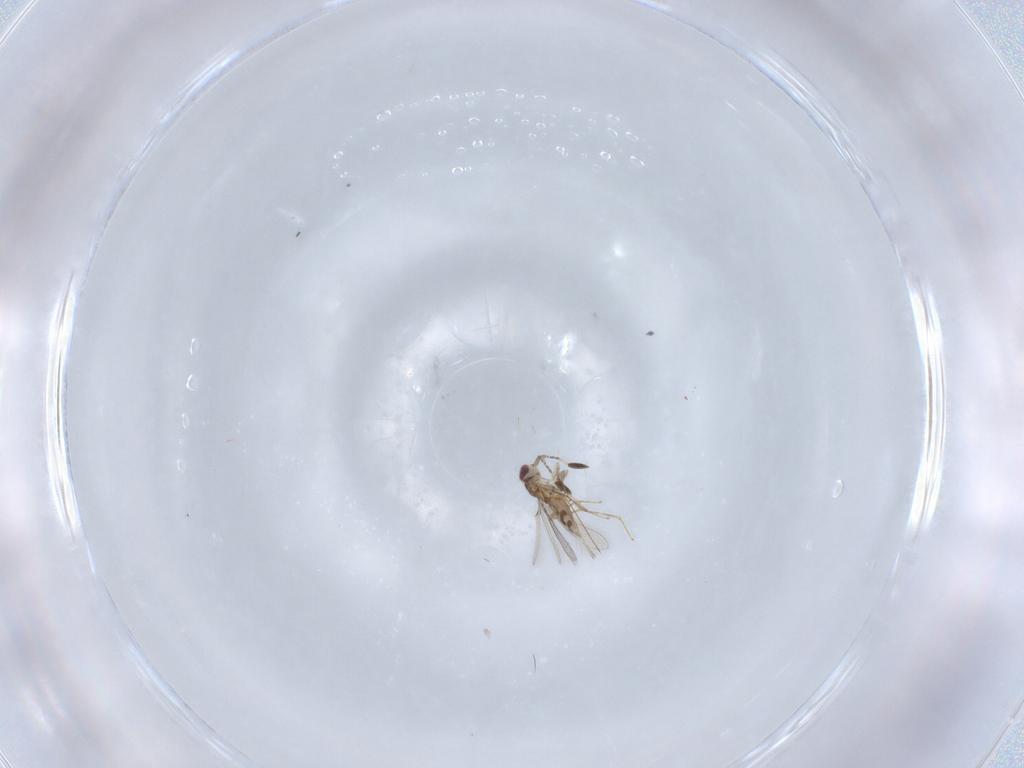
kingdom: Animalia
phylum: Arthropoda
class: Insecta
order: Hymenoptera
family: Mymaridae
